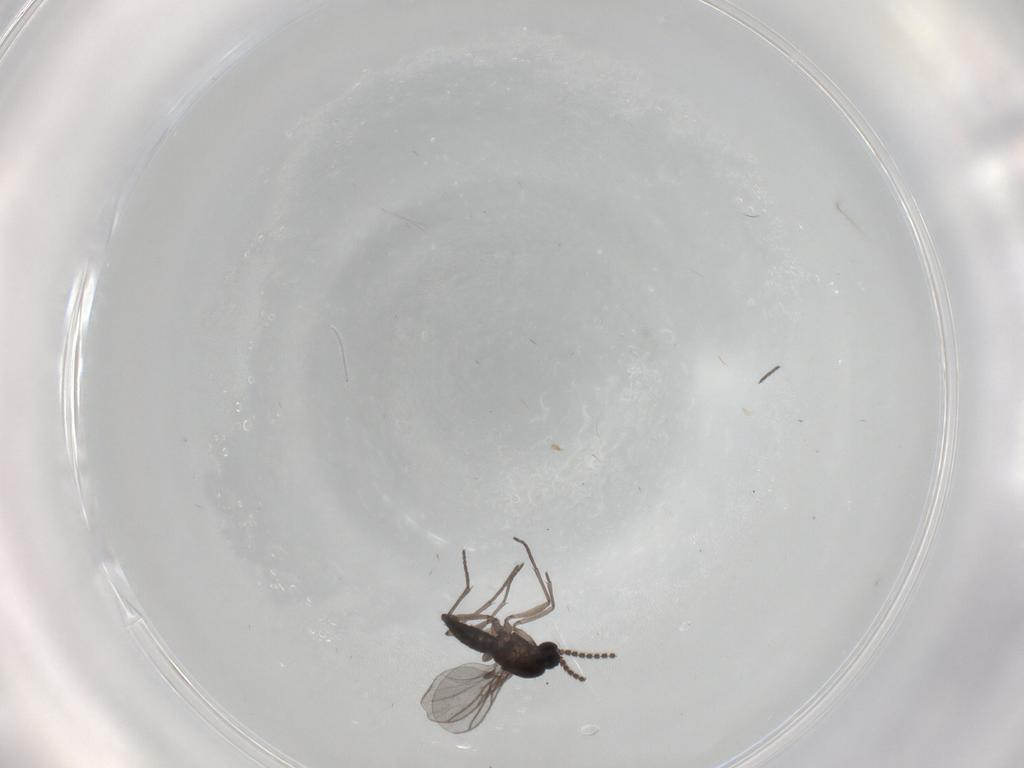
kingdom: Animalia
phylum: Arthropoda
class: Insecta
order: Diptera
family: Sciaridae
